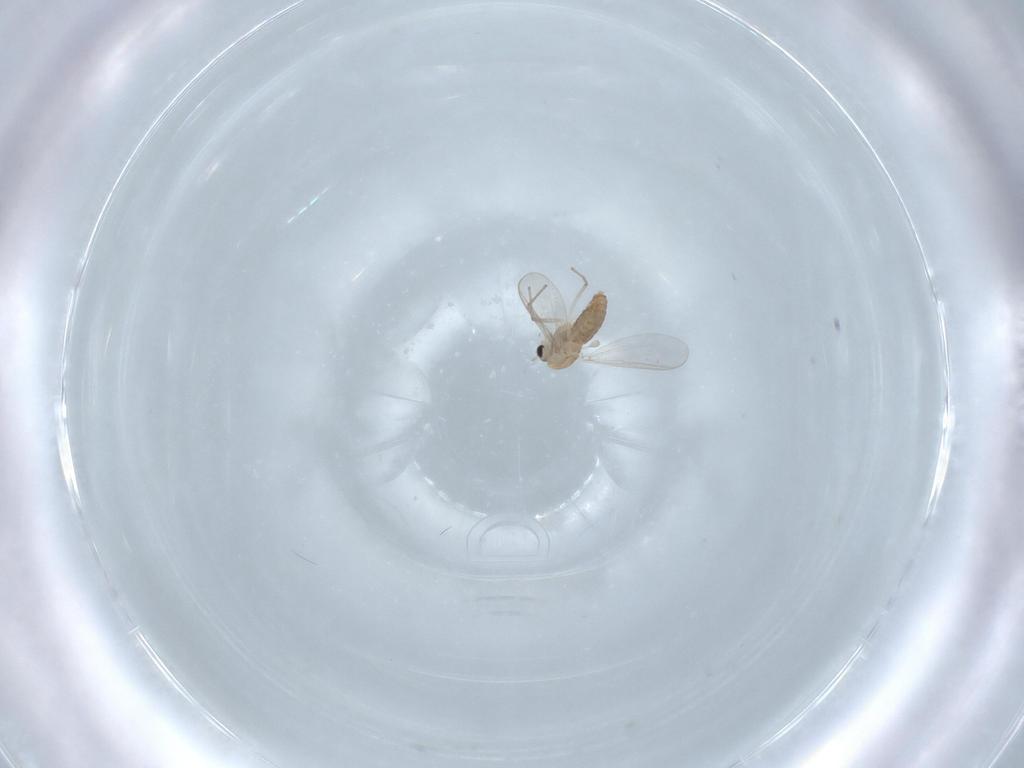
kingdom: Animalia
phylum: Arthropoda
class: Insecta
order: Diptera
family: Chironomidae
